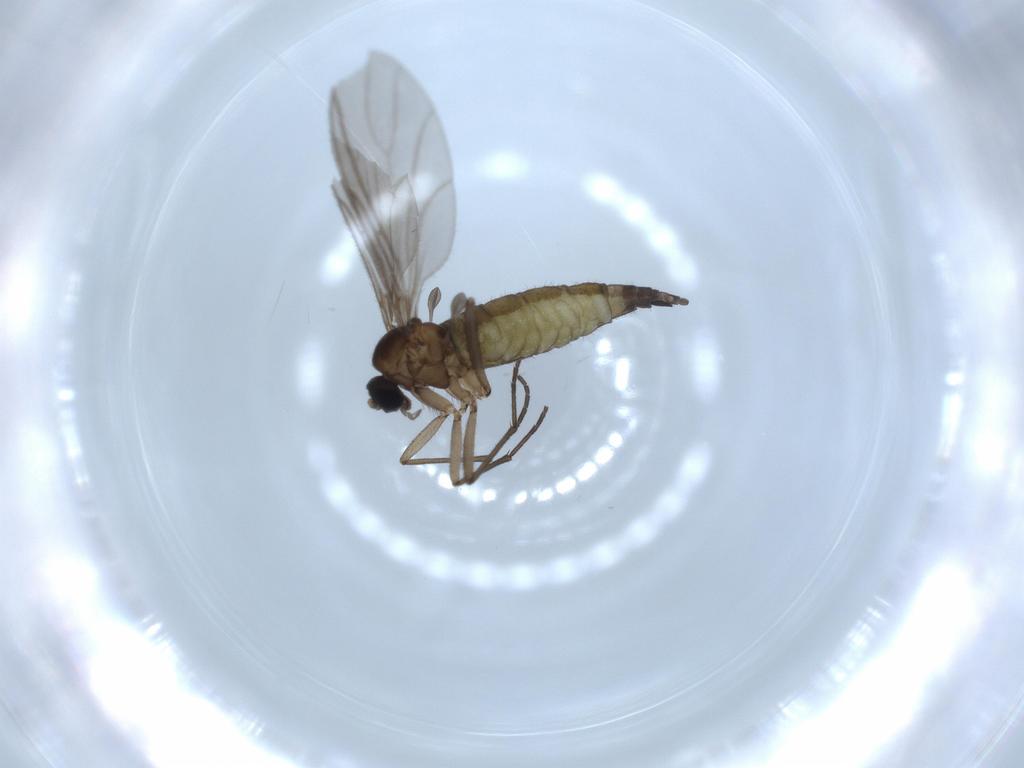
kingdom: Animalia
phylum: Arthropoda
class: Insecta
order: Diptera
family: Sciaridae
